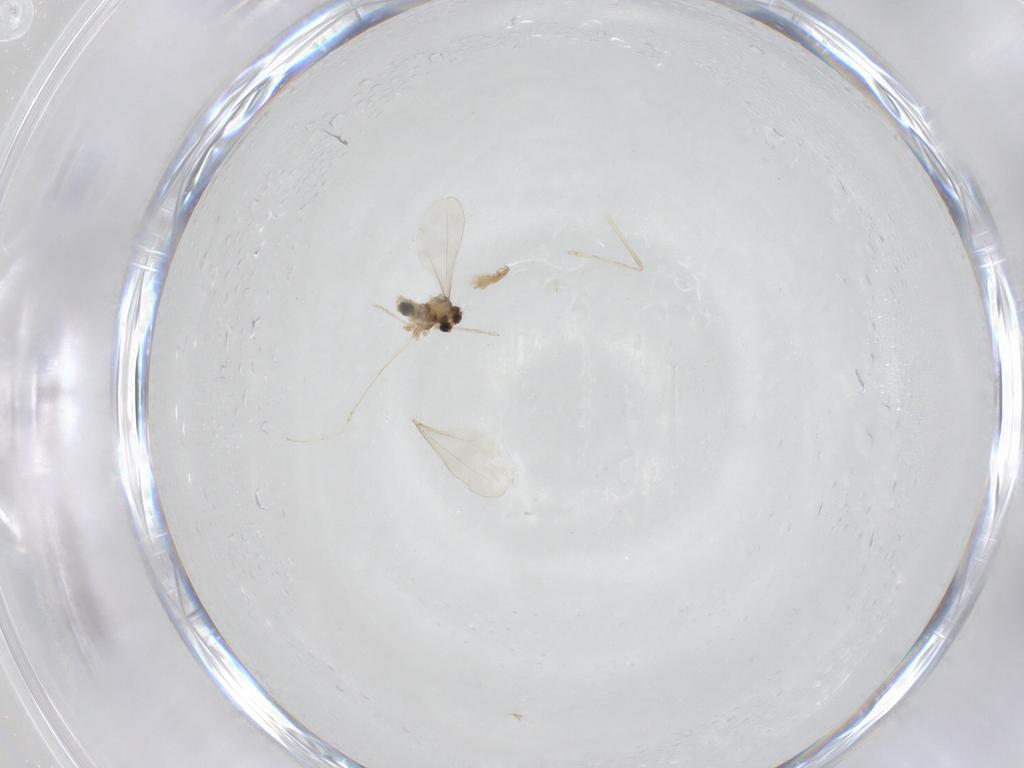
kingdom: Animalia
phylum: Arthropoda
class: Insecta
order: Diptera
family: Cecidomyiidae
